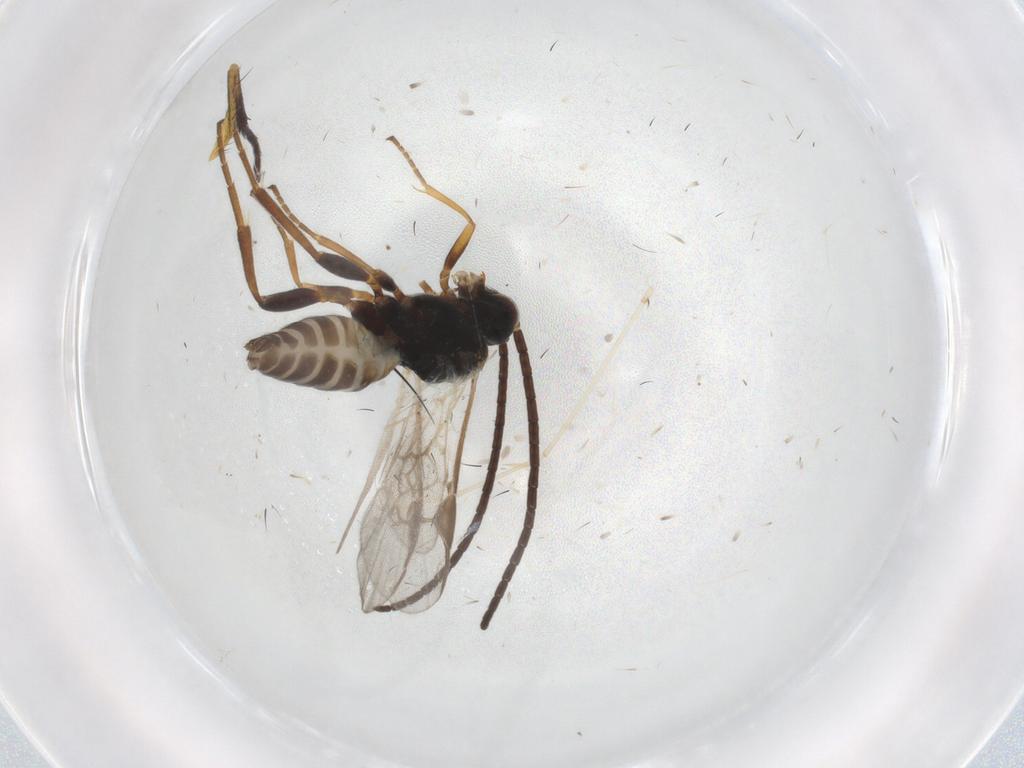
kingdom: Animalia
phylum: Arthropoda
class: Insecta
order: Hymenoptera
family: Braconidae
